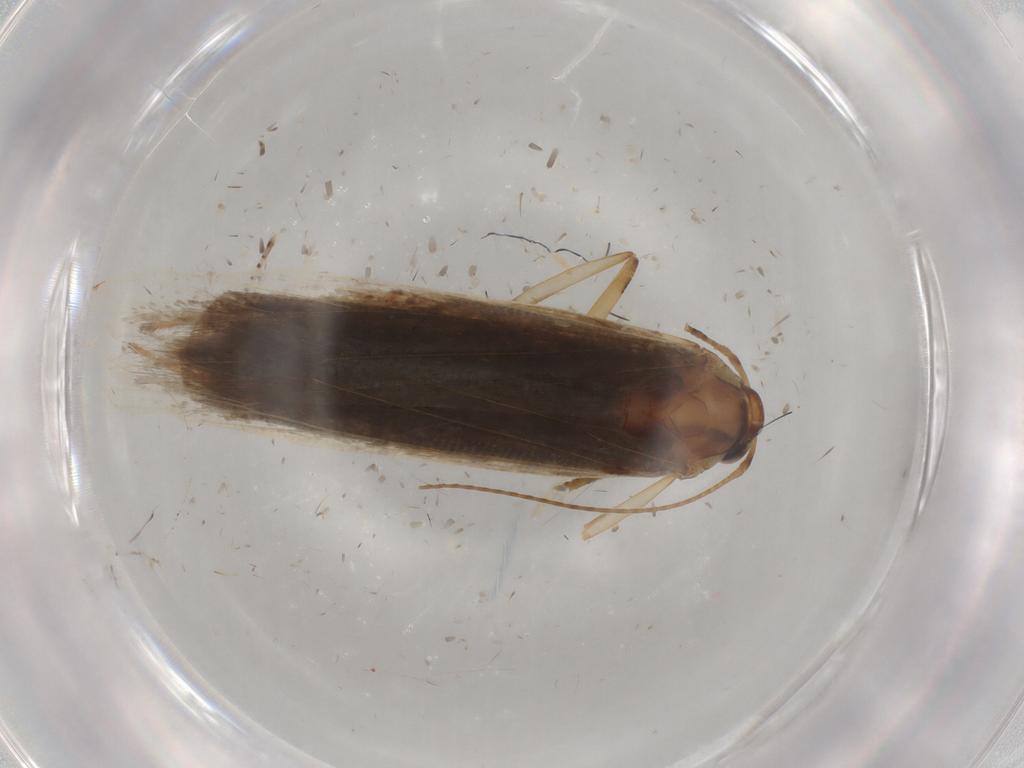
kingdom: Animalia
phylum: Arthropoda
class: Insecta
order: Lepidoptera
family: Gelechiidae
